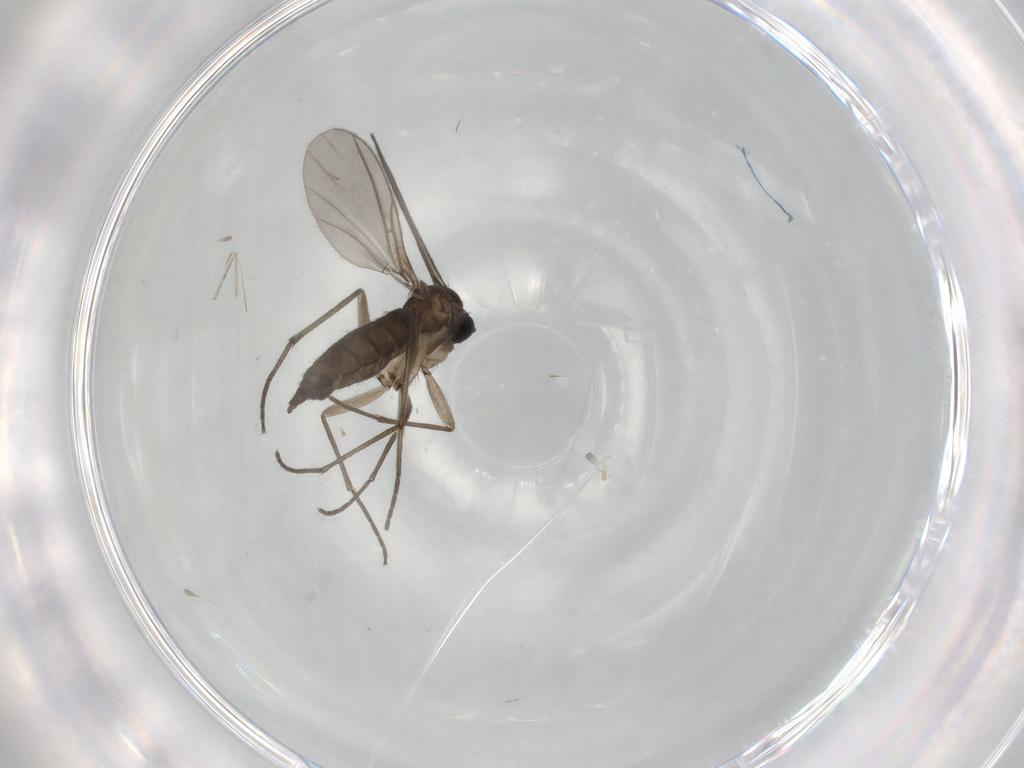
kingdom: Animalia
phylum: Arthropoda
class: Insecta
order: Diptera
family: Sciaridae
